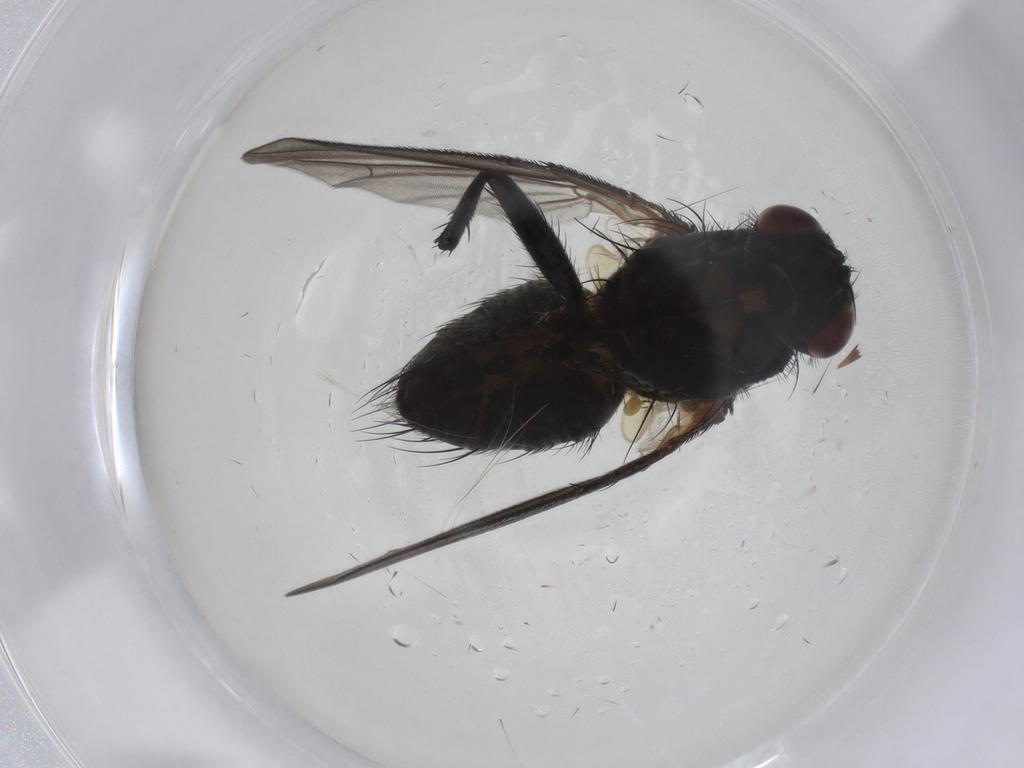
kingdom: Animalia
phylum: Arthropoda
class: Insecta
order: Diptera
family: Tachinidae
